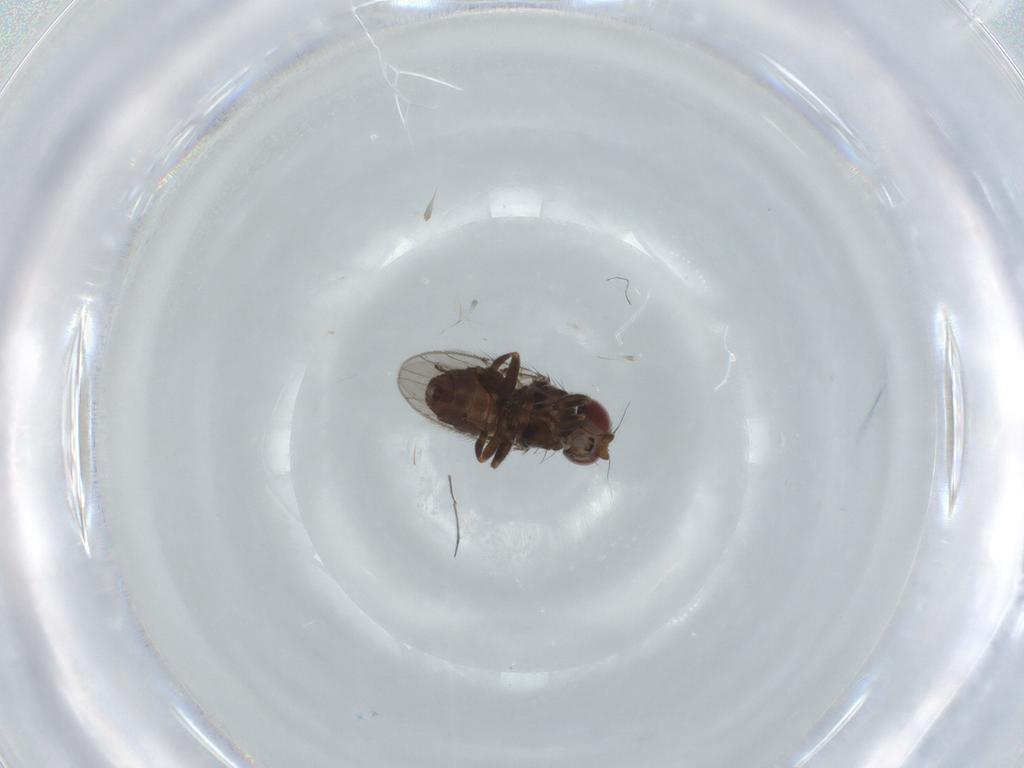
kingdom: Animalia
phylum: Arthropoda
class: Insecta
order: Diptera
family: Chloropidae
